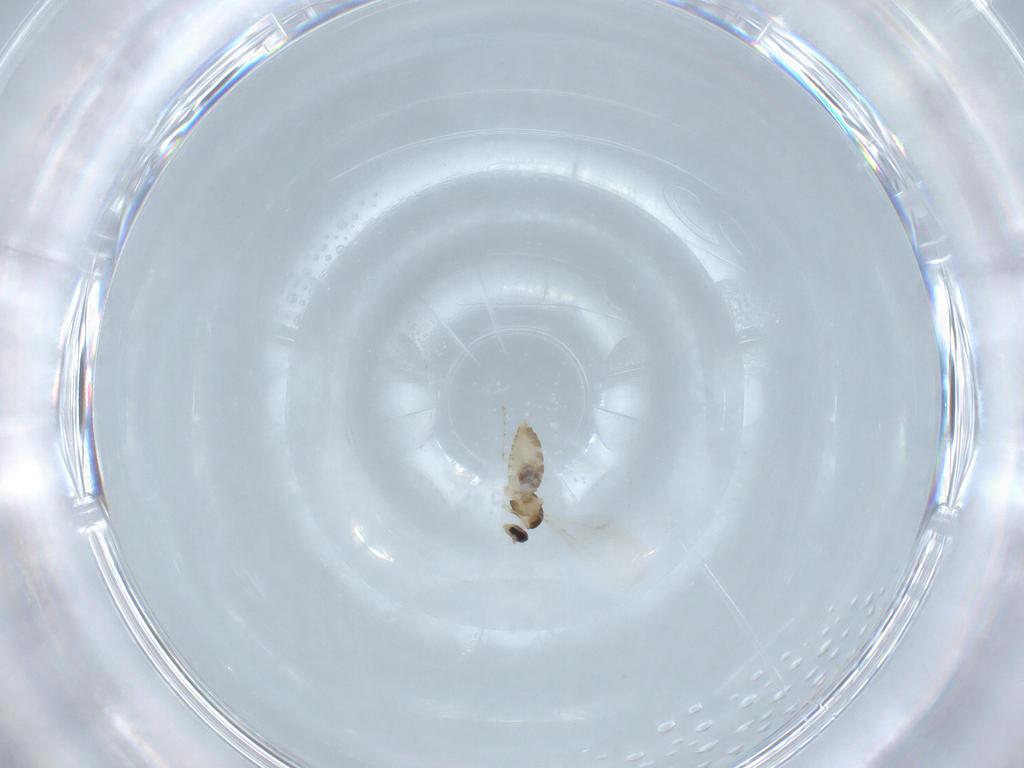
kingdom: Animalia
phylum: Arthropoda
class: Insecta
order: Diptera
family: Cecidomyiidae
